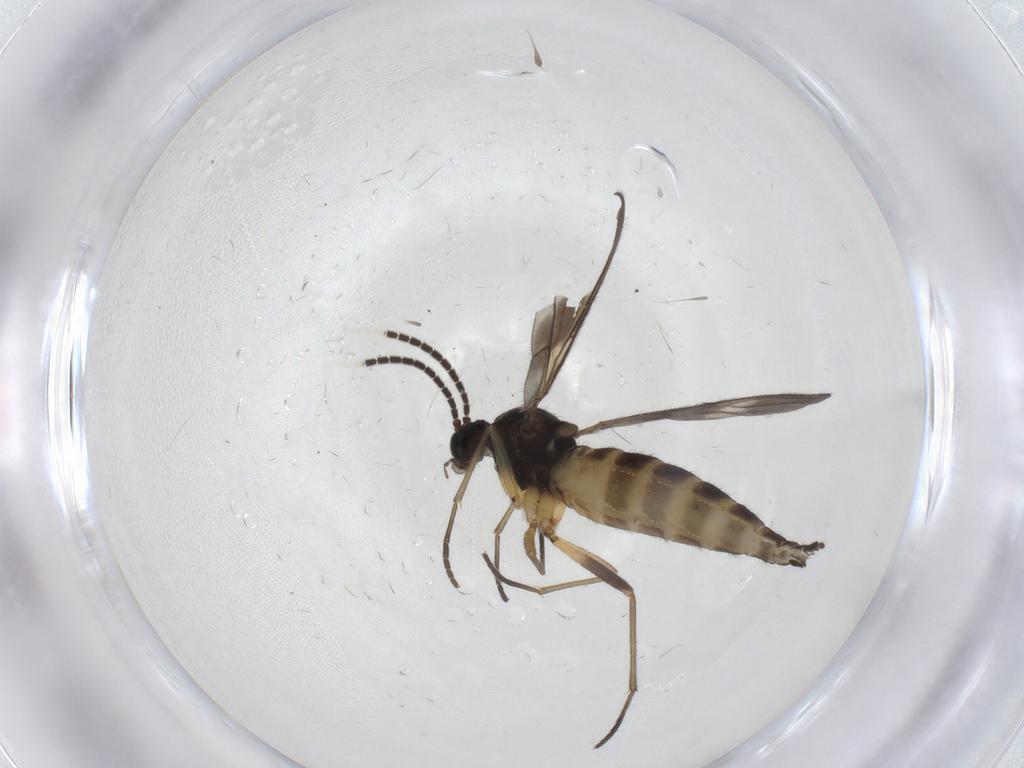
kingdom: Animalia
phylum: Arthropoda
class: Insecta
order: Diptera
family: Sciaridae
